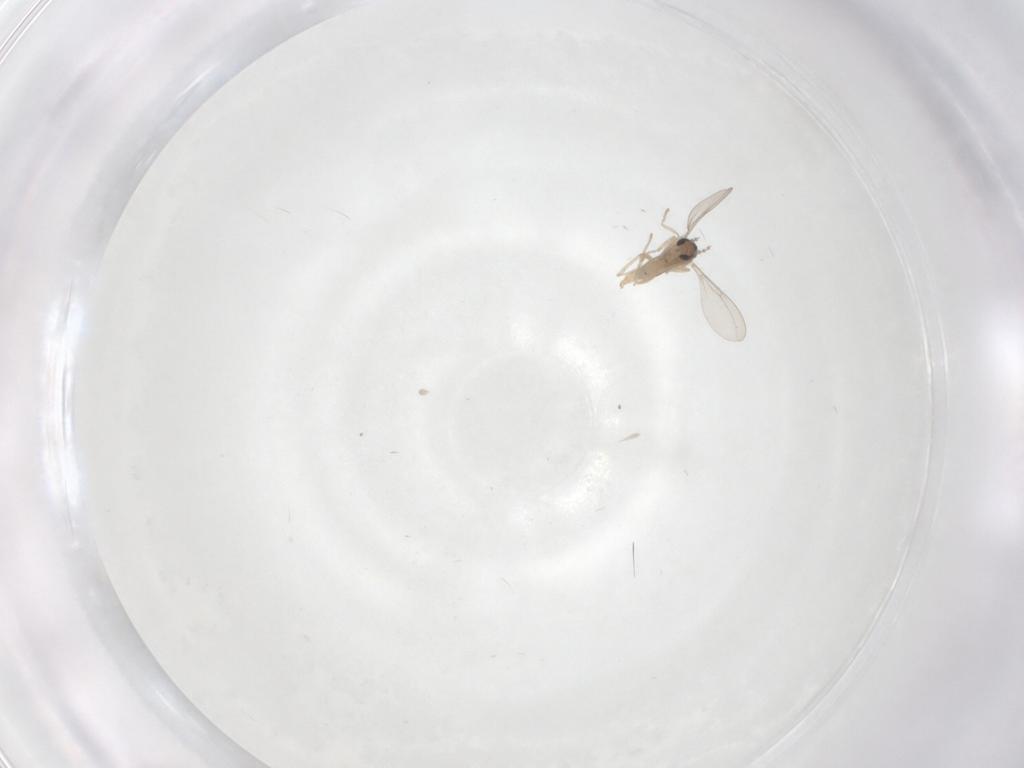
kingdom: Animalia
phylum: Arthropoda
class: Insecta
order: Diptera
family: Cecidomyiidae
